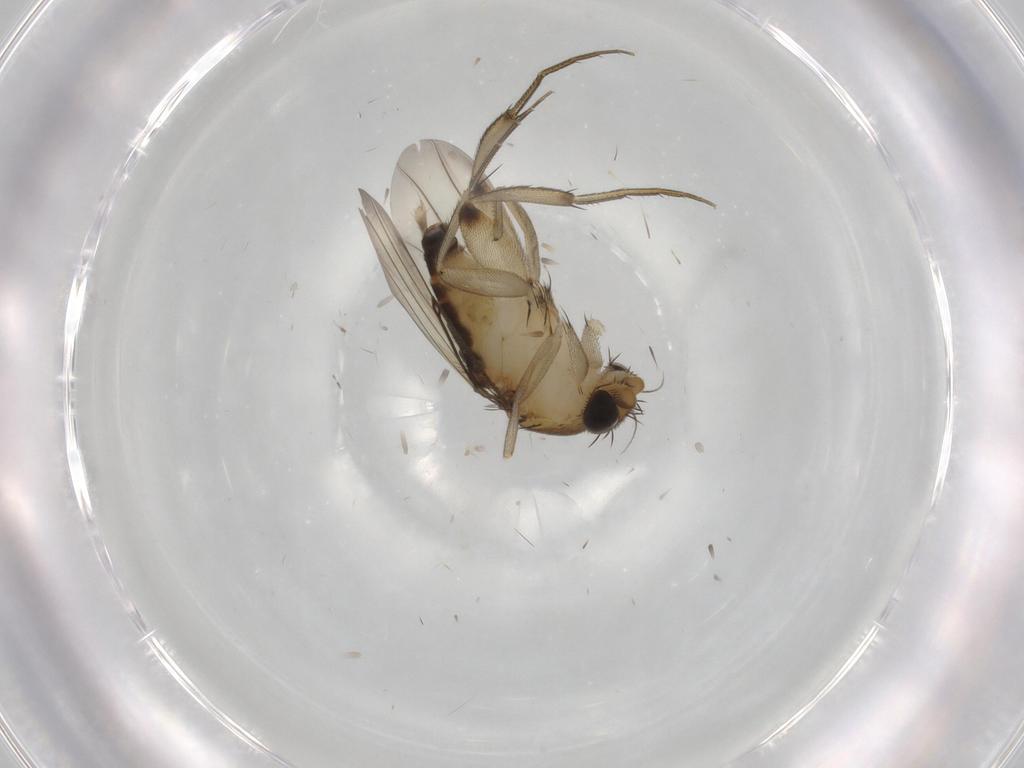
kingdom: Animalia
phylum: Arthropoda
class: Insecta
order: Diptera
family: Phoridae
